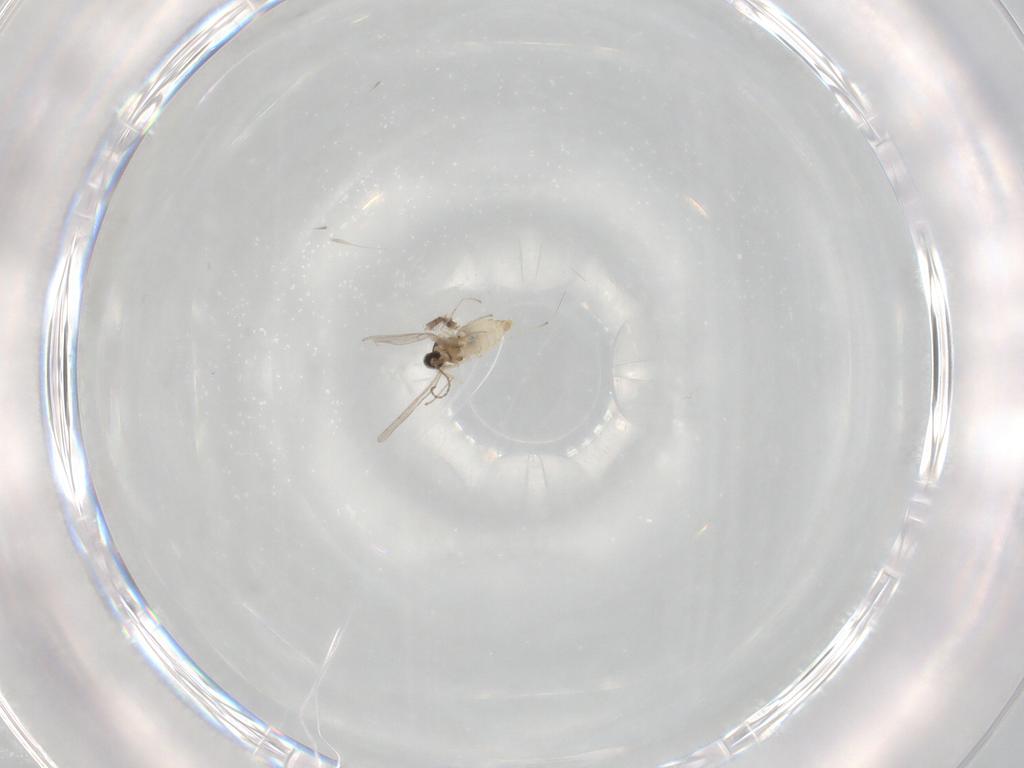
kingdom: Animalia
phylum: Arthropoda
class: Insecta
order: Diptera
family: Cecidomyiidae
